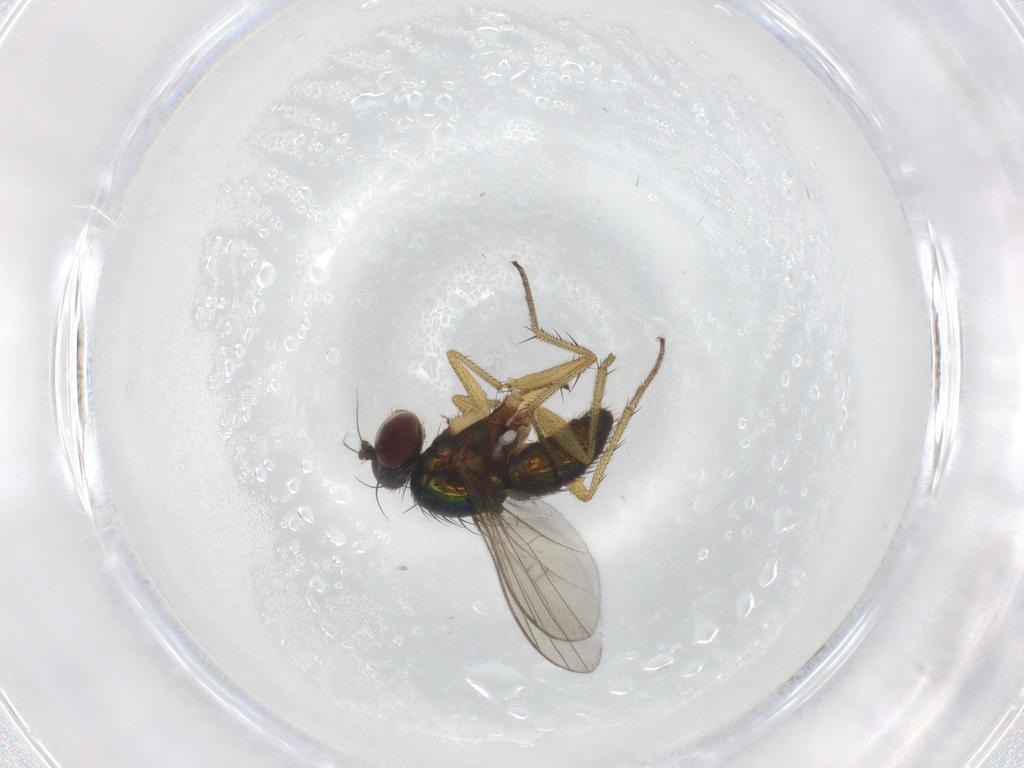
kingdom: Animalia
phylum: Arthropoda
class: Insecta
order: Diptera
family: Dolichopodidae
